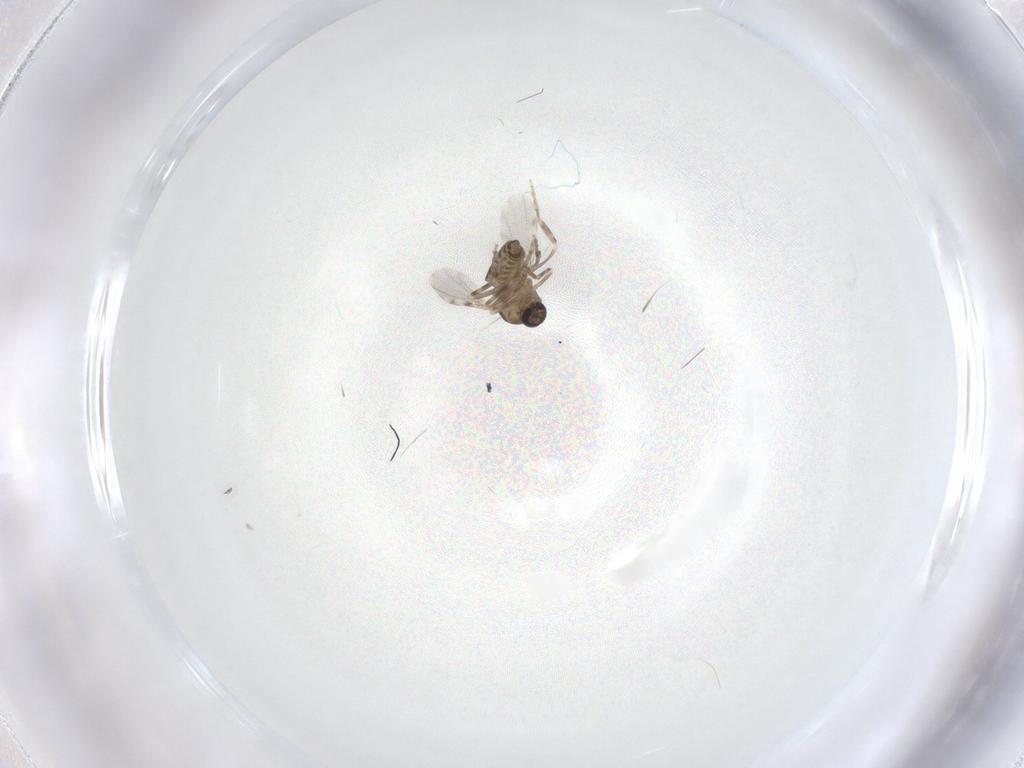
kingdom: Animalia
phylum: Arthropoda
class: Insecta
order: Diptera
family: Ceratopogonidae
